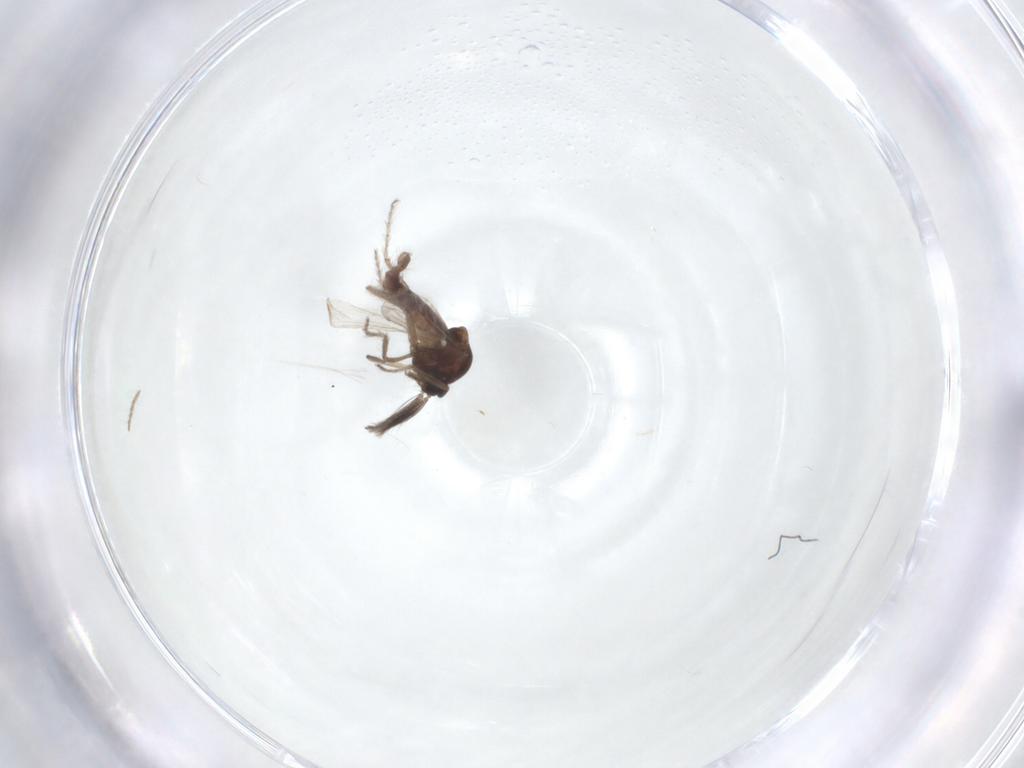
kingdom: Animalia
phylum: Arthropoda
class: Insecta
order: Diptera
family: Ceratopogonidae
